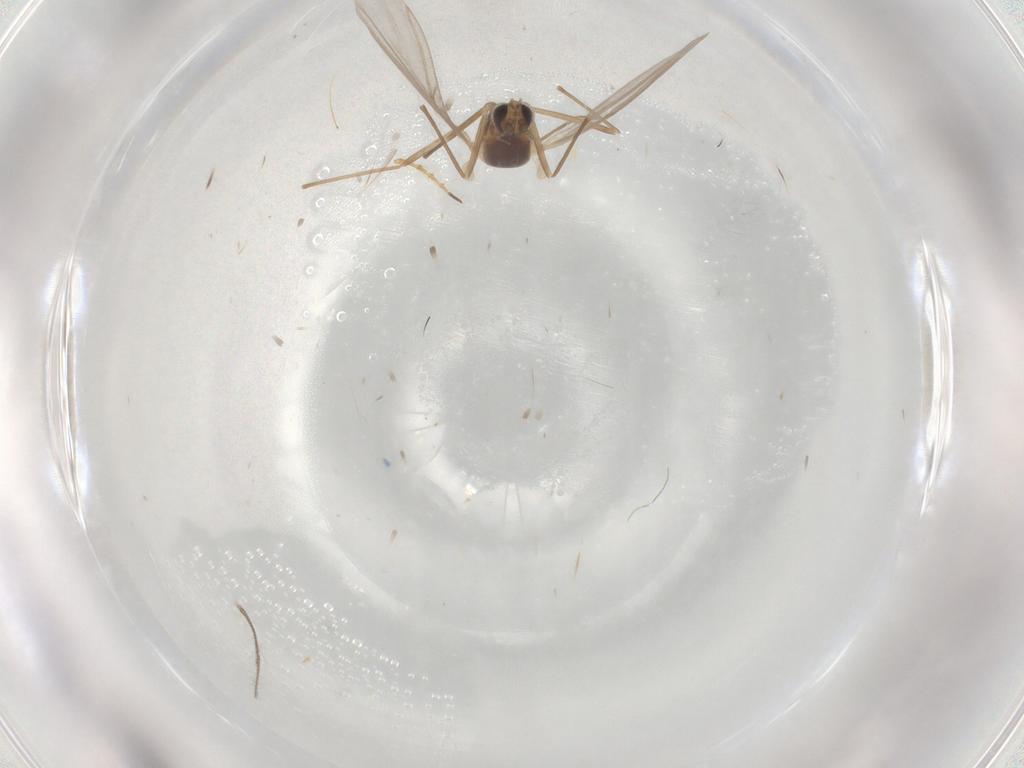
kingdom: Animalia
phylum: Arthropoda
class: Insecta
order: Diptera
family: Cecidomyiidae
